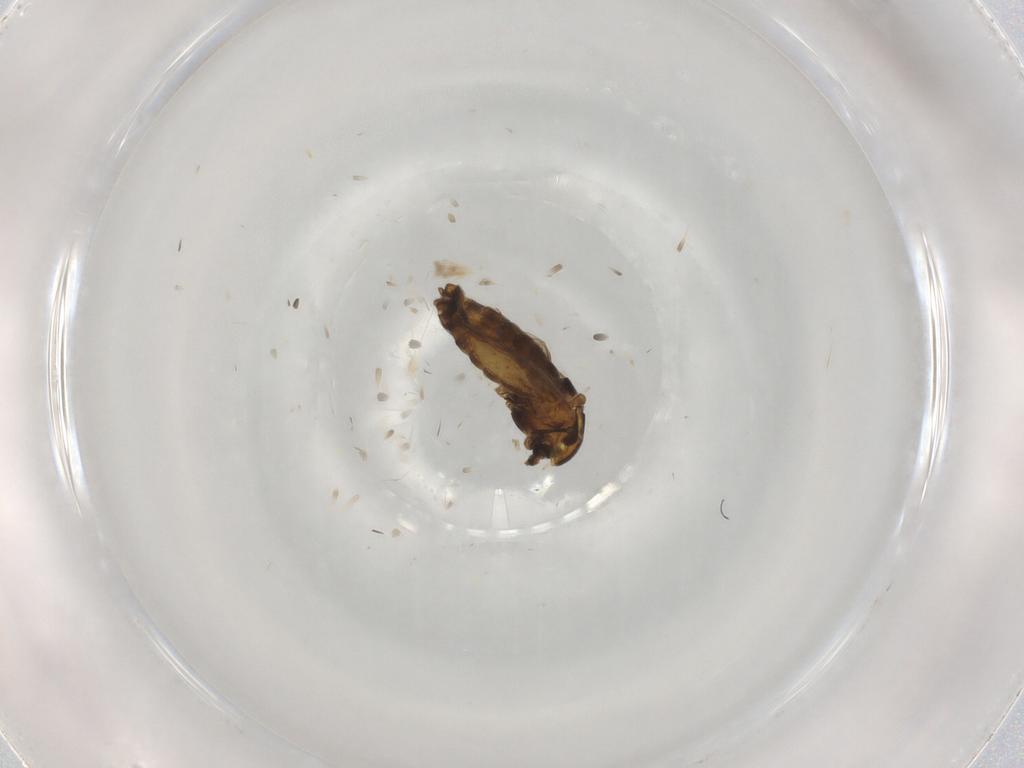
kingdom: Animalia
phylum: Arthropoda
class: Insecta
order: Diptera
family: Chironomidae
